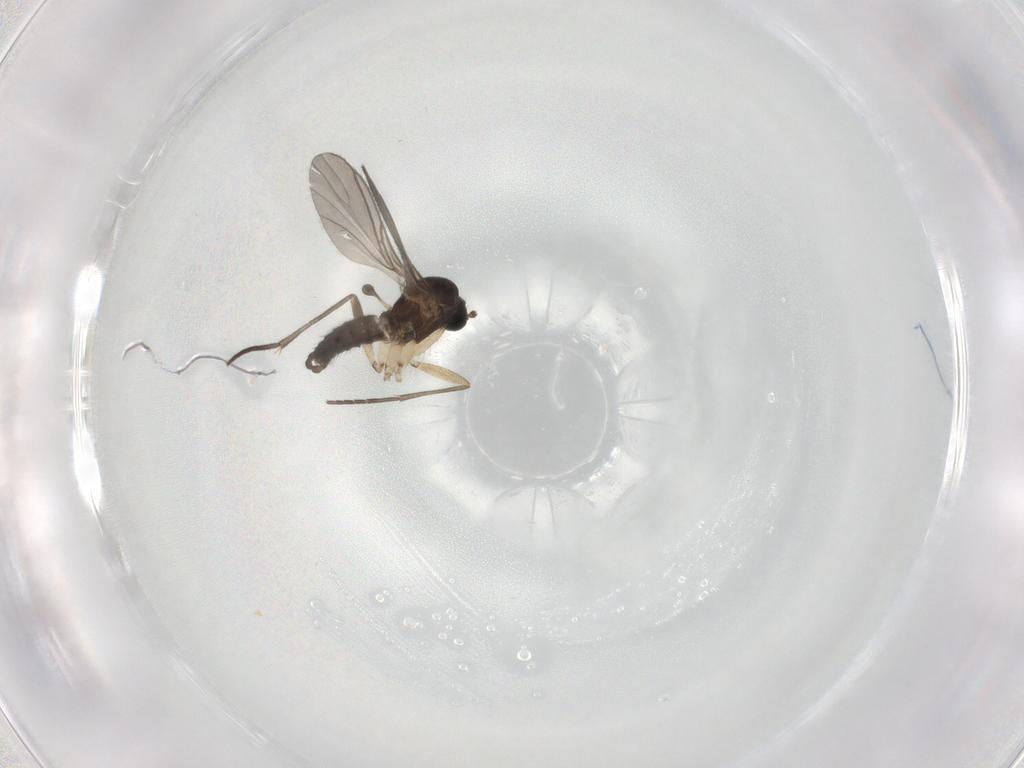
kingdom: Animalia
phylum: Arthropoda
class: Insecta
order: Diptera
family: Sciaridae
